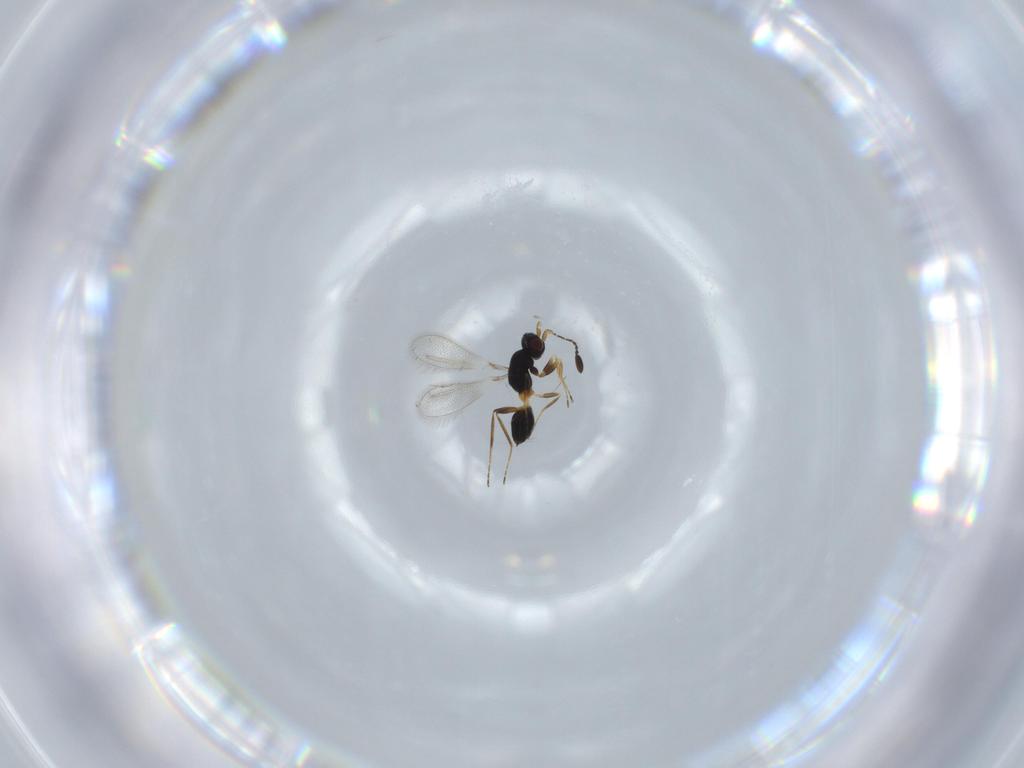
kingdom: Animalia
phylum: Arthropoda
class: Insecta
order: Hymenoptera
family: Mymaridae
